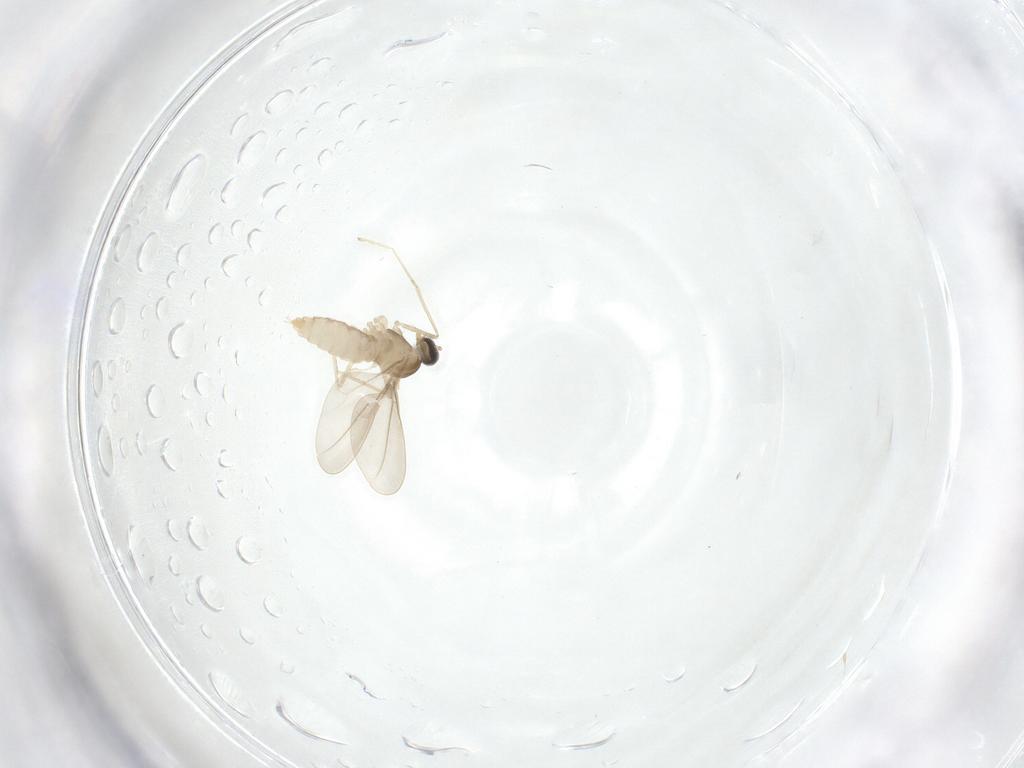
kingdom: Animalia
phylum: Arthropoda
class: Insecta
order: Diptera
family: Cecidomyiidae
